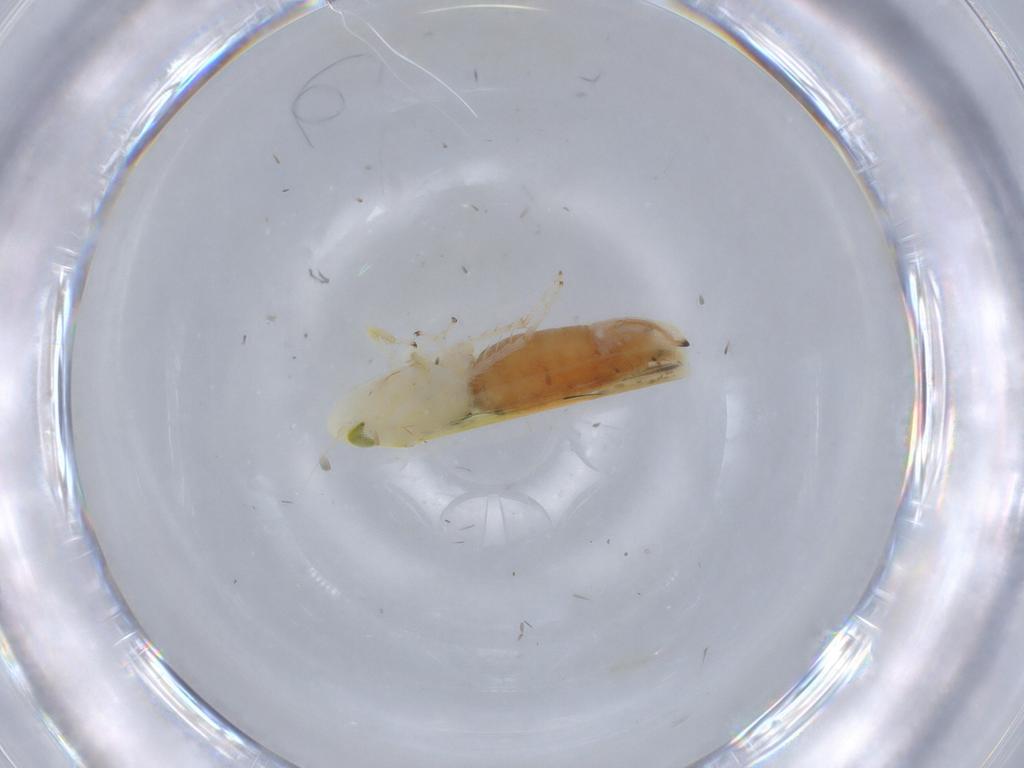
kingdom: Animalia
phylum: Arthropoda
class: Insecta
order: Hemiptera
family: Cicadellidae
